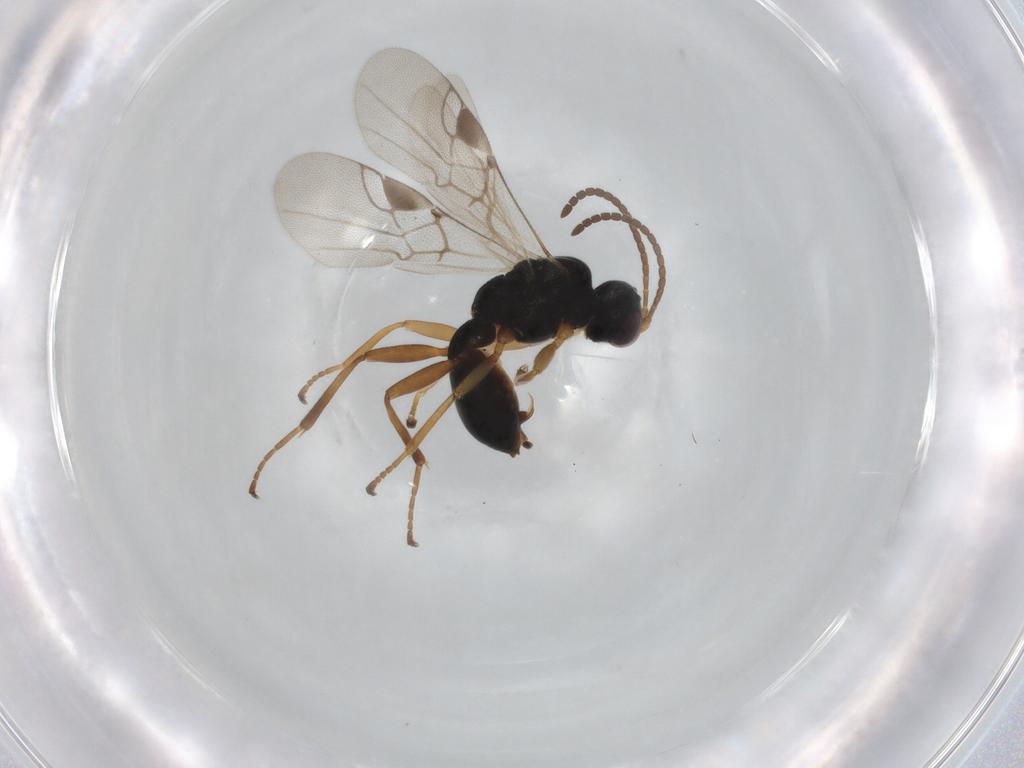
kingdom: Animalia
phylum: Arthropoda
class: Insecta
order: Hymenoptera
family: Braconidae
